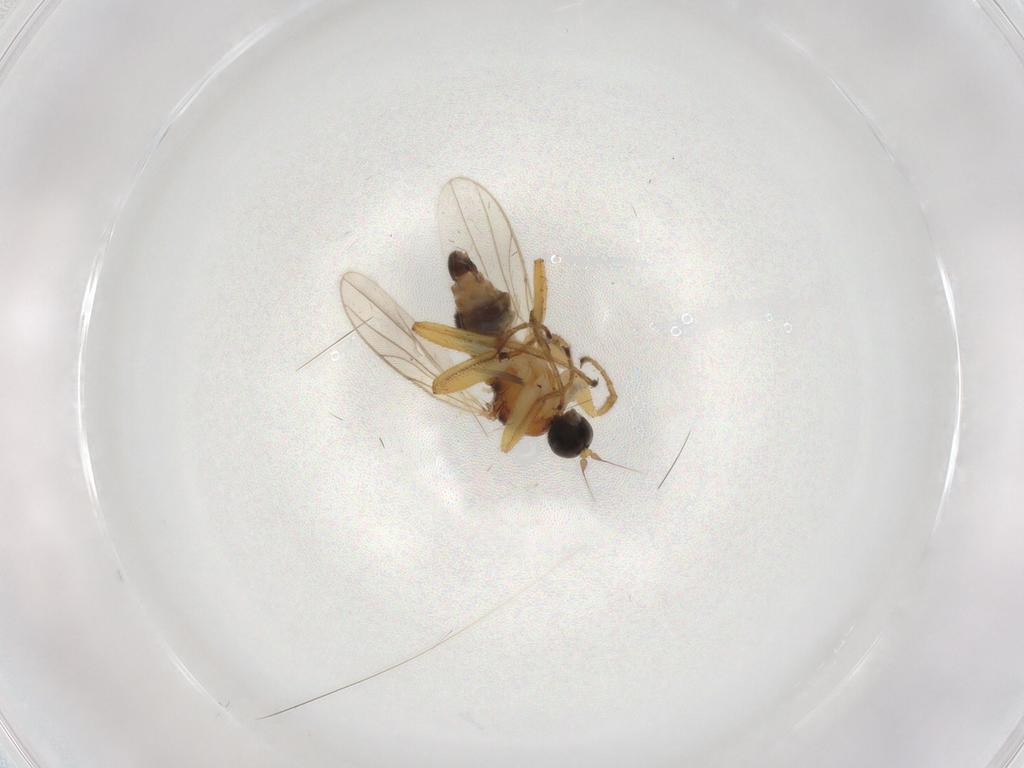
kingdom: Animalia
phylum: Arthropoda
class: Insecta
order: Diptera
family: Hybotidae
